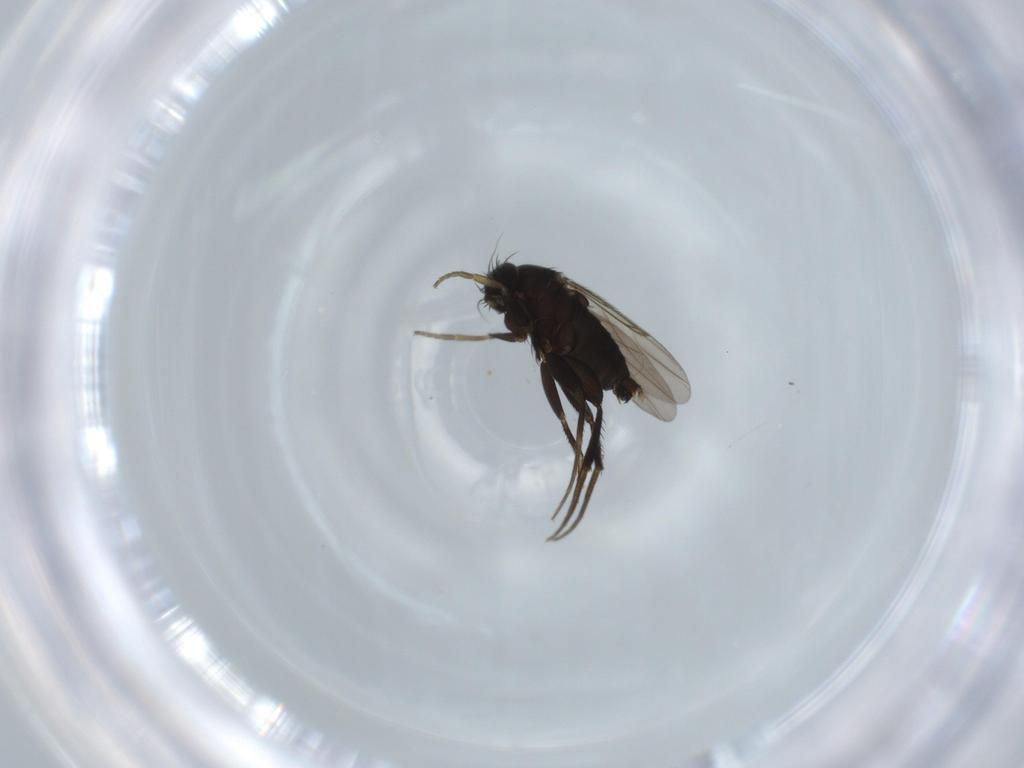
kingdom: Animalia
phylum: Arthropoda
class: Insecta
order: Diptera
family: Phoridae
